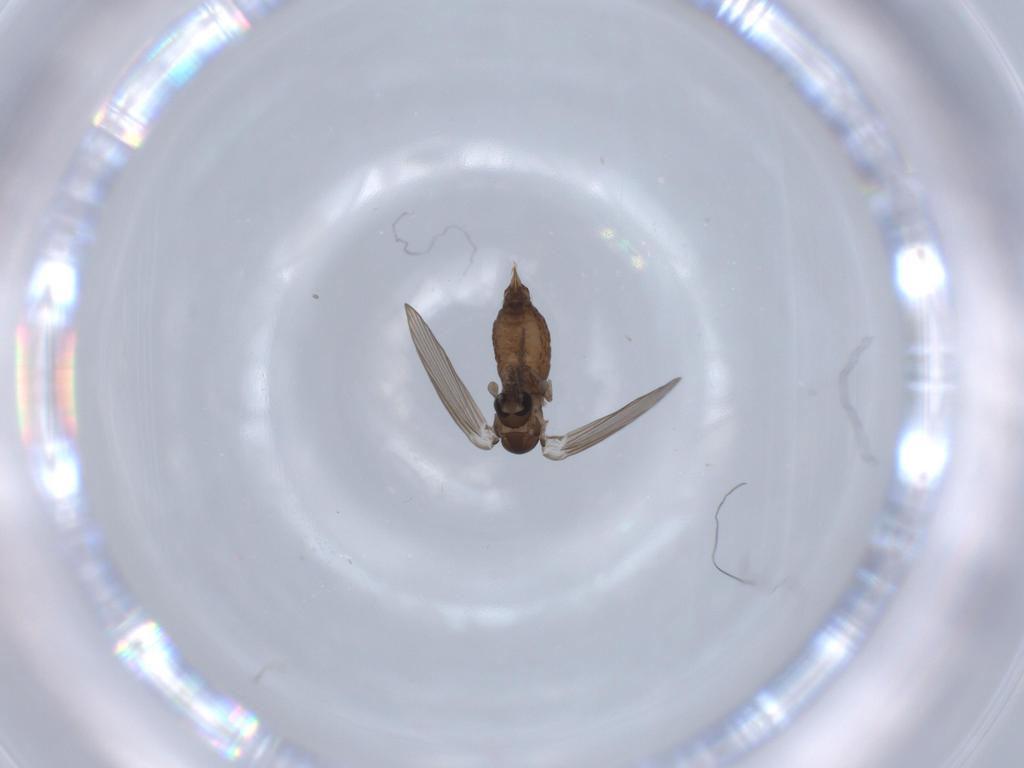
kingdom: Animalia
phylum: Arthropoda
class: Insecta
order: Diptera
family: Psychodidae
